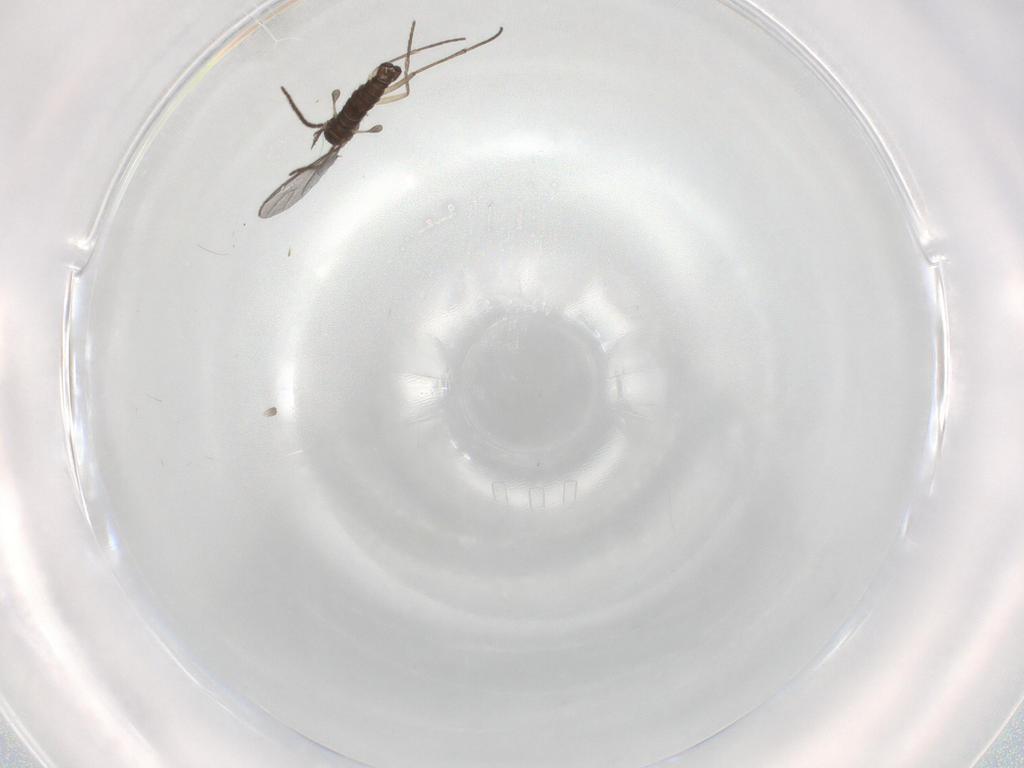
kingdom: Animalia
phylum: Arthropoda
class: Insecta
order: Diptera
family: Sciaridae
